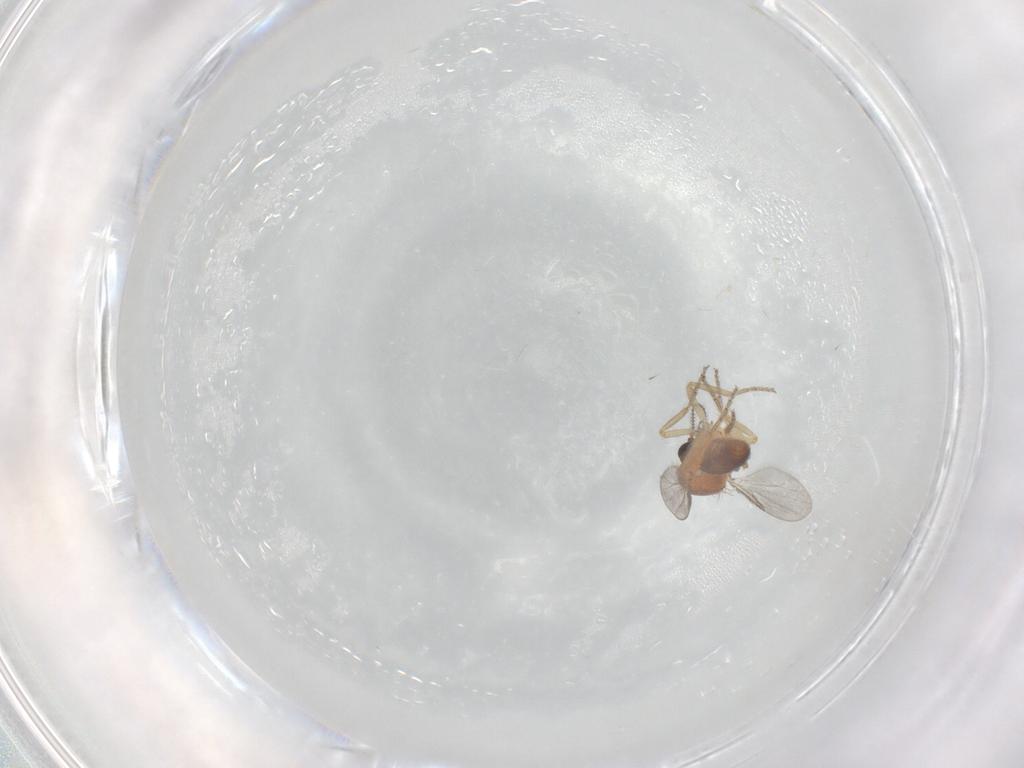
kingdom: Animalia
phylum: Arthropoda
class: Insecta
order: Diptera
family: Ceratopogonidae
